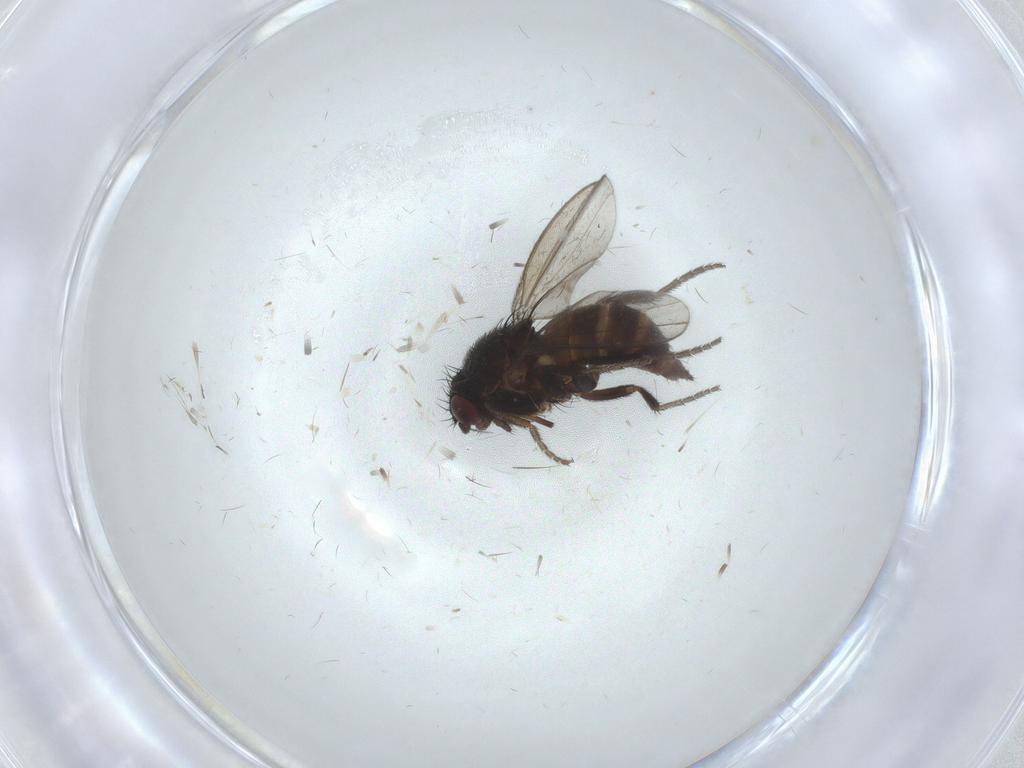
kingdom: Animalia
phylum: Arthropoda
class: Insecta
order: Diptera
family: Milichiidae
